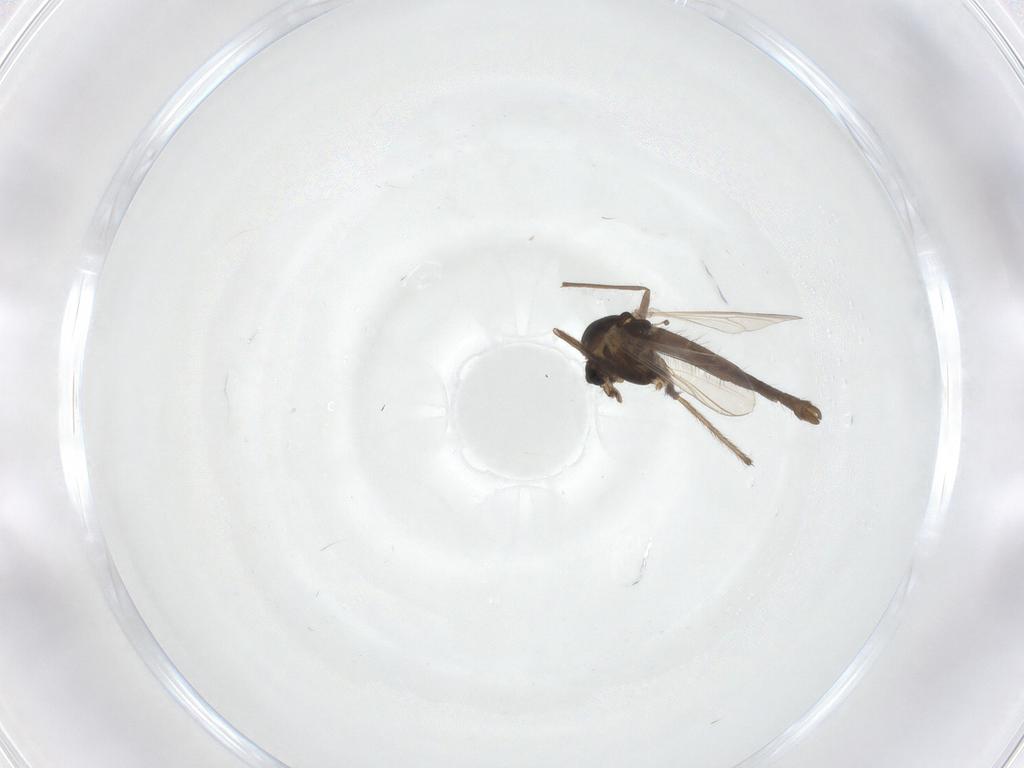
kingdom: Animalia
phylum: Arthropoda
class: Insecta
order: Diptera
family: Chironomidae
